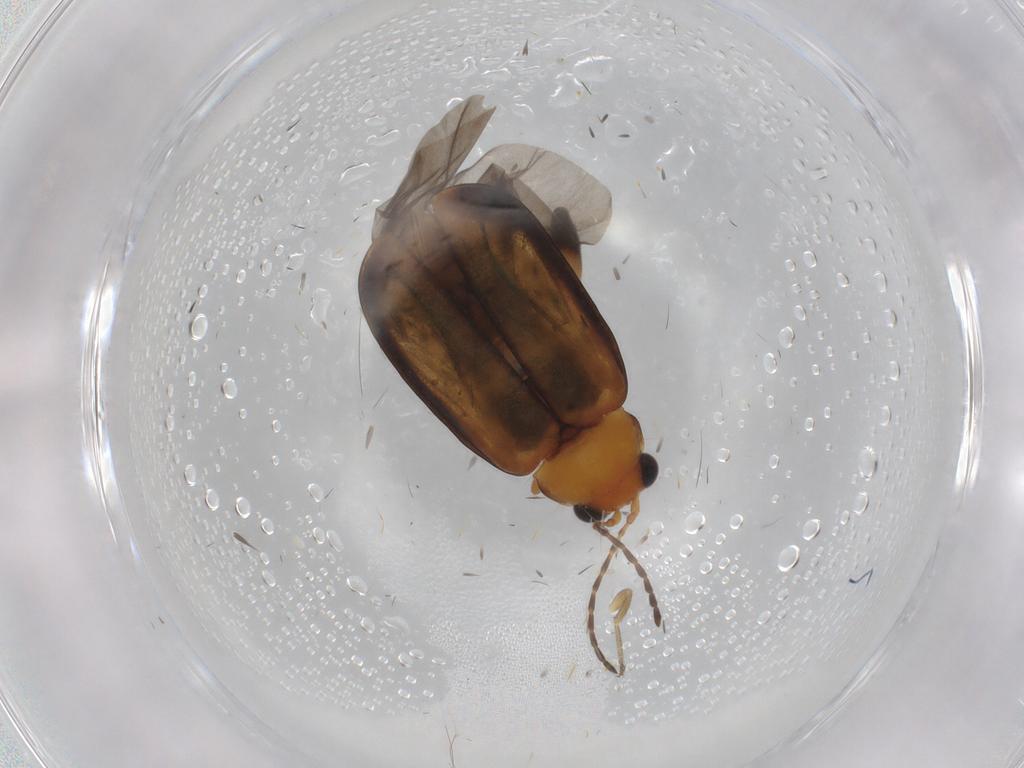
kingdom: Animalia
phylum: Arthropoda
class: Insecta
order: Coleoptera
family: Chrysomelidae
